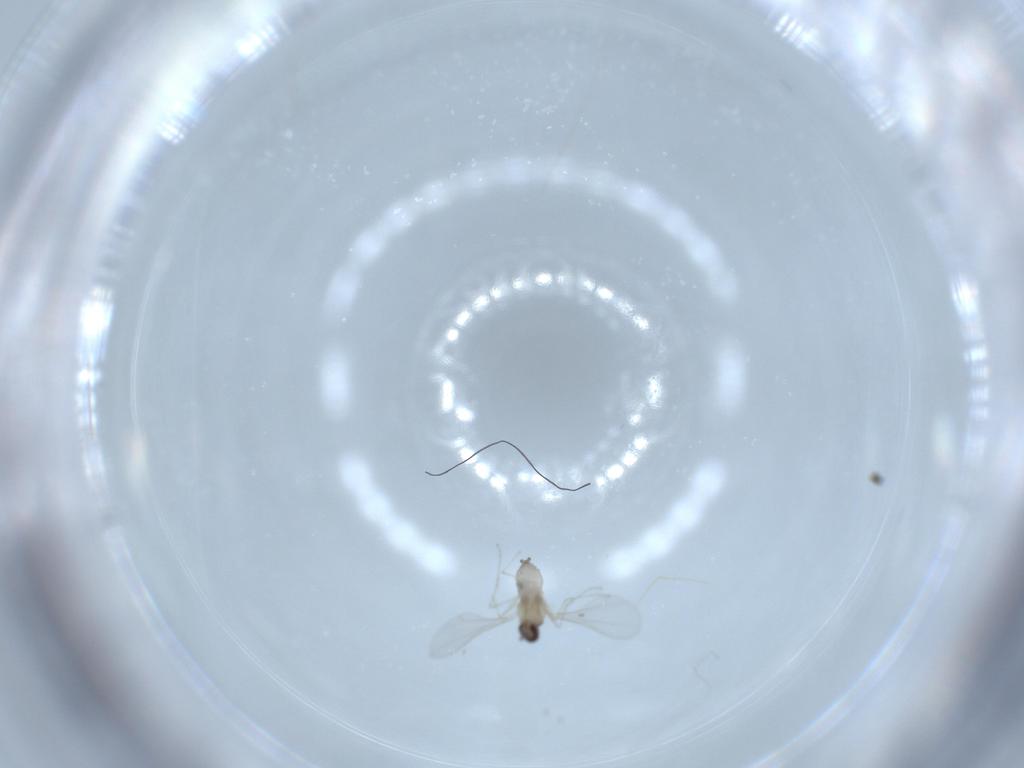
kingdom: Animalia
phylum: Arthropoda
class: Insecta
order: Diptera
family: Cecidomyiidae
